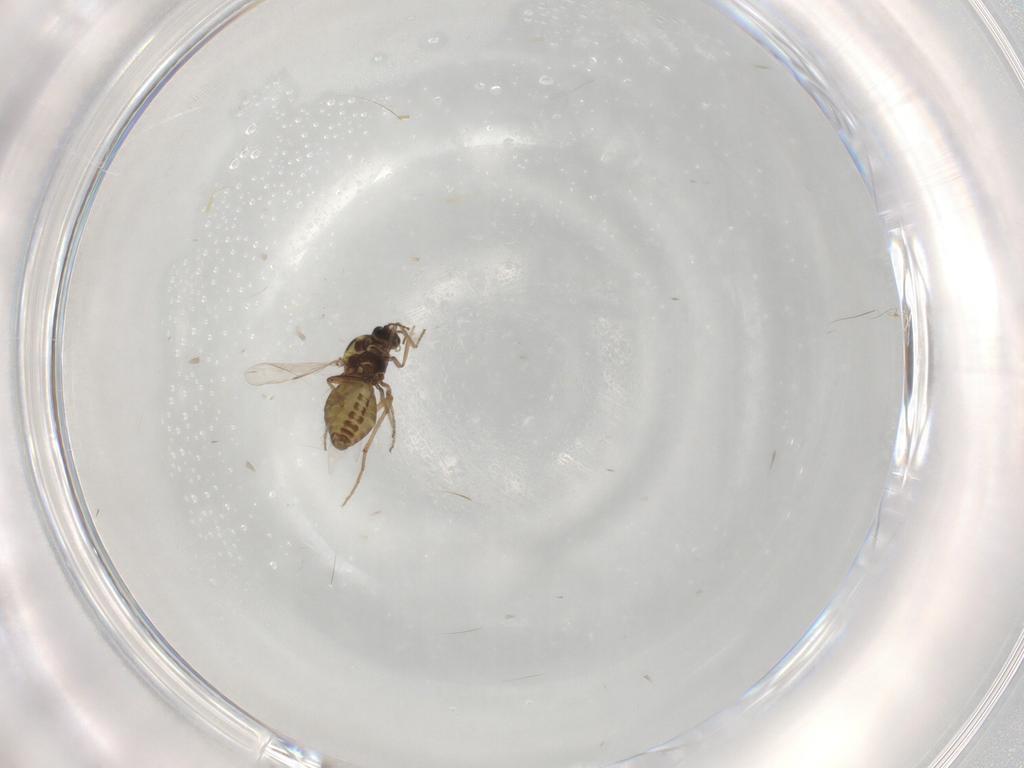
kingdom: Animalia
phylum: Arthropoda
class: Insecta
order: Diptera
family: Ceratopogonidae
